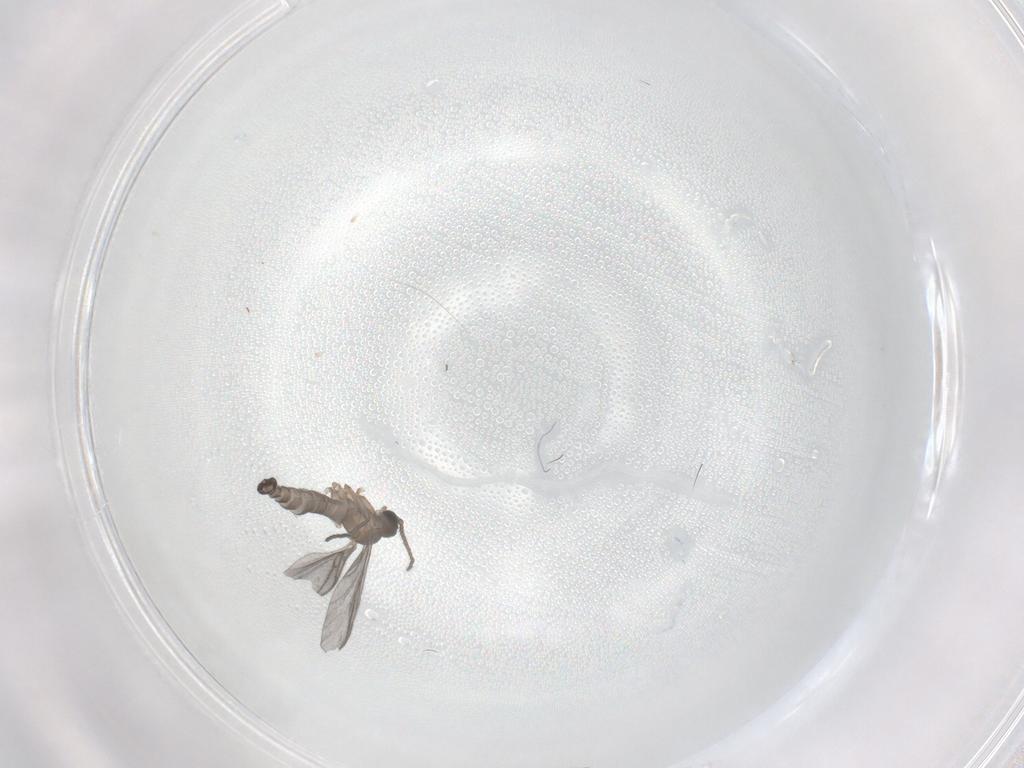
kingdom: Animalia
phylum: Arthropoda
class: Insecta
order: Diptera
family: Sciaridae
